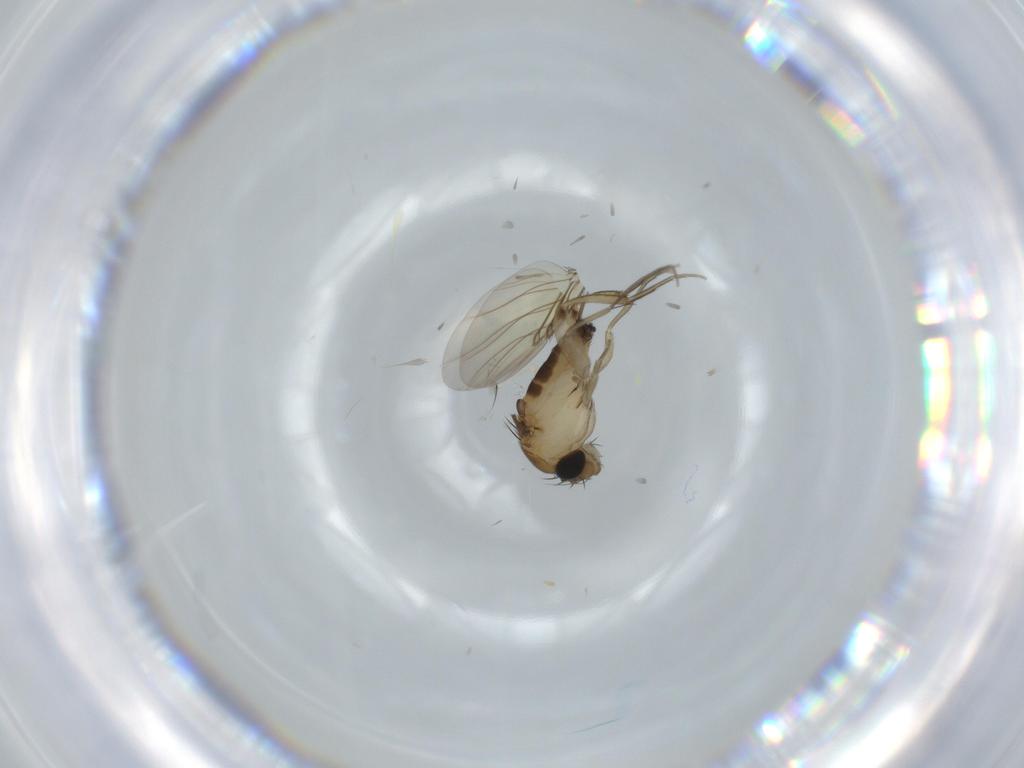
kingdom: Animalia
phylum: Arthropoda
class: Insecta
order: Diptera
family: Phoridae
